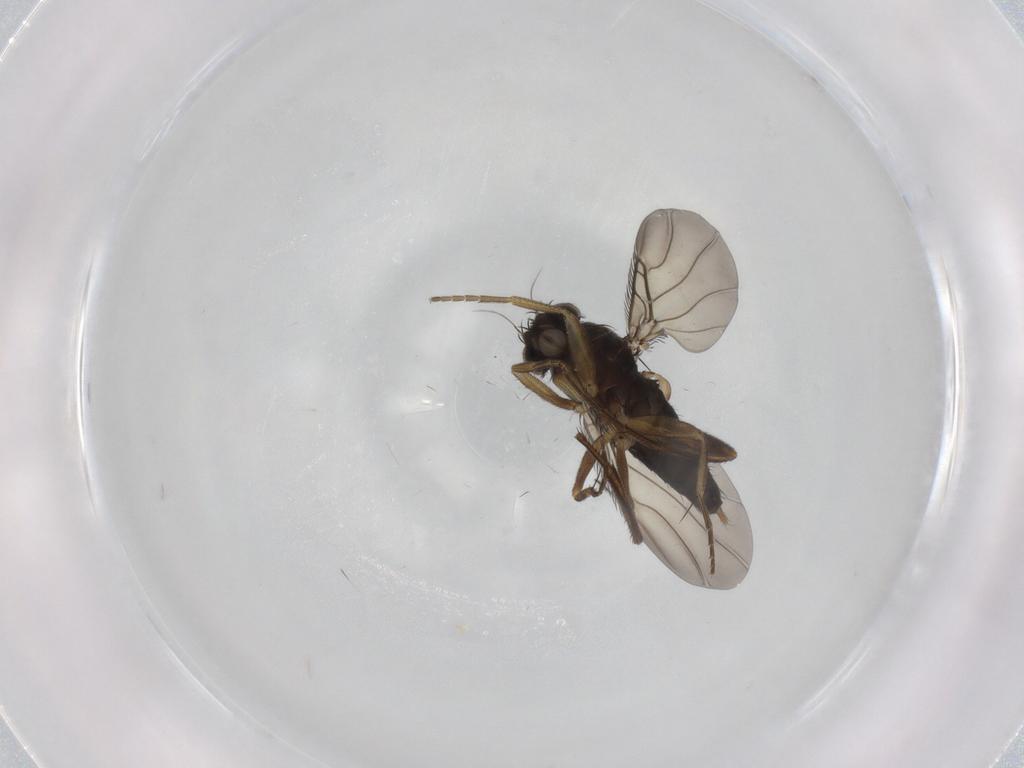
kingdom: Animalia
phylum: Arthropoda
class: Insecta
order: Diptera
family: Phoridae
